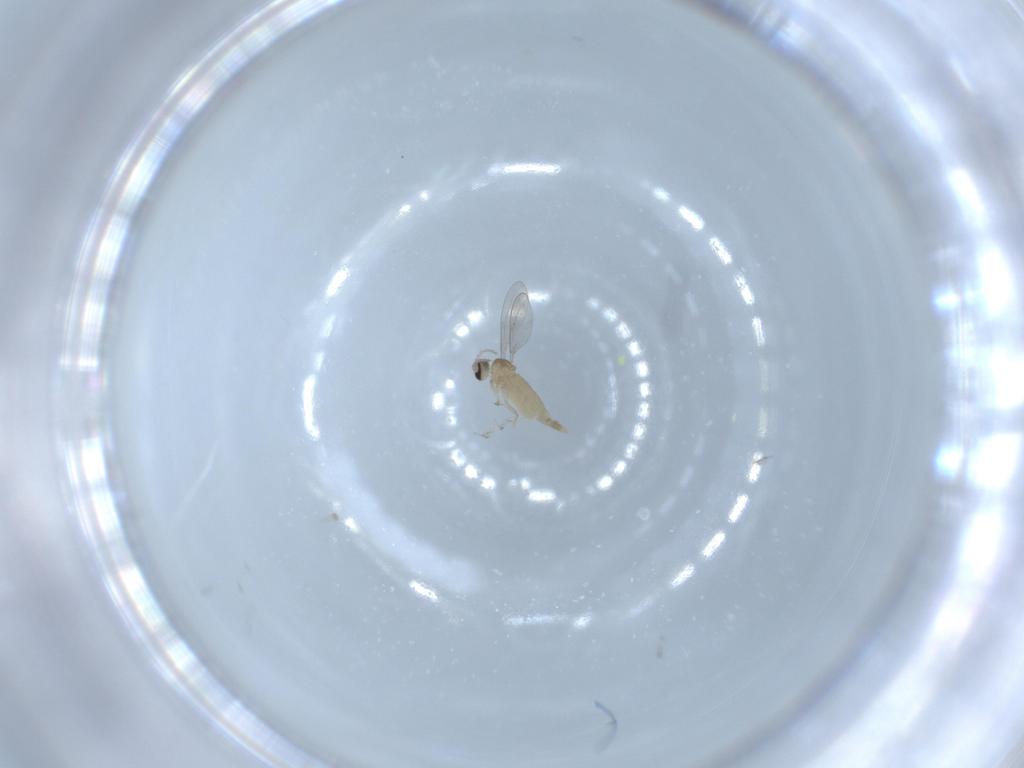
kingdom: Animalia
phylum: Arthropoda
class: Insecta
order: Diptera
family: Cecidomyiidae
